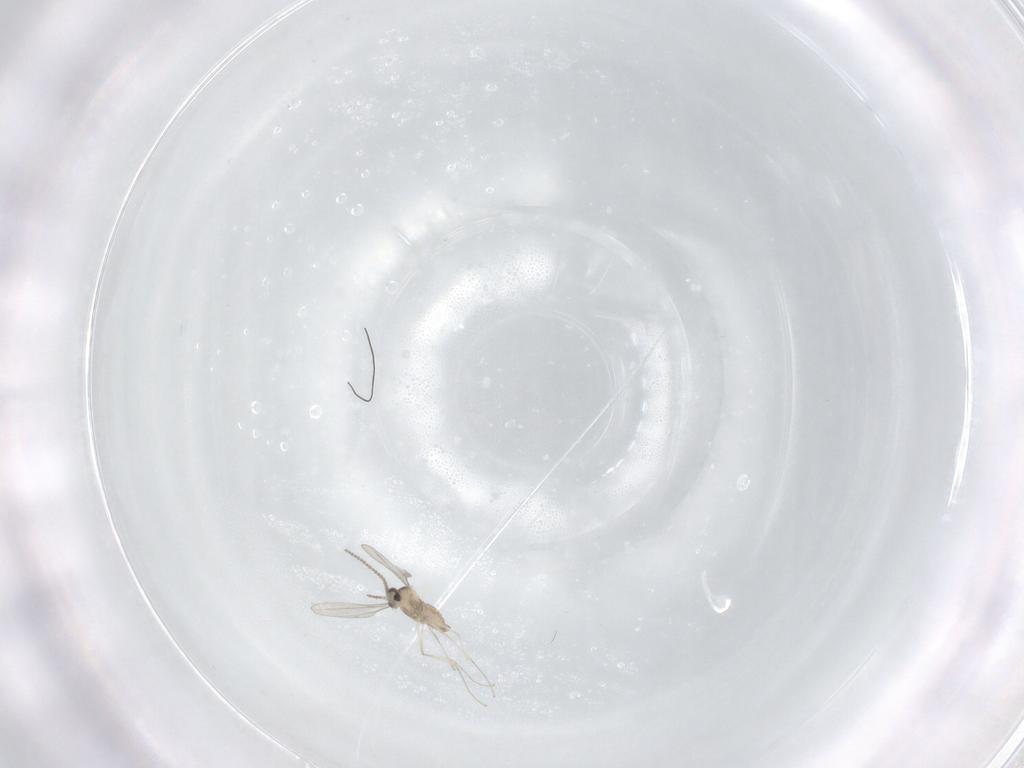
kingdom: Animalia
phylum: Arthropoda
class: Insecta
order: Diptera
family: Cecidomyiidae
